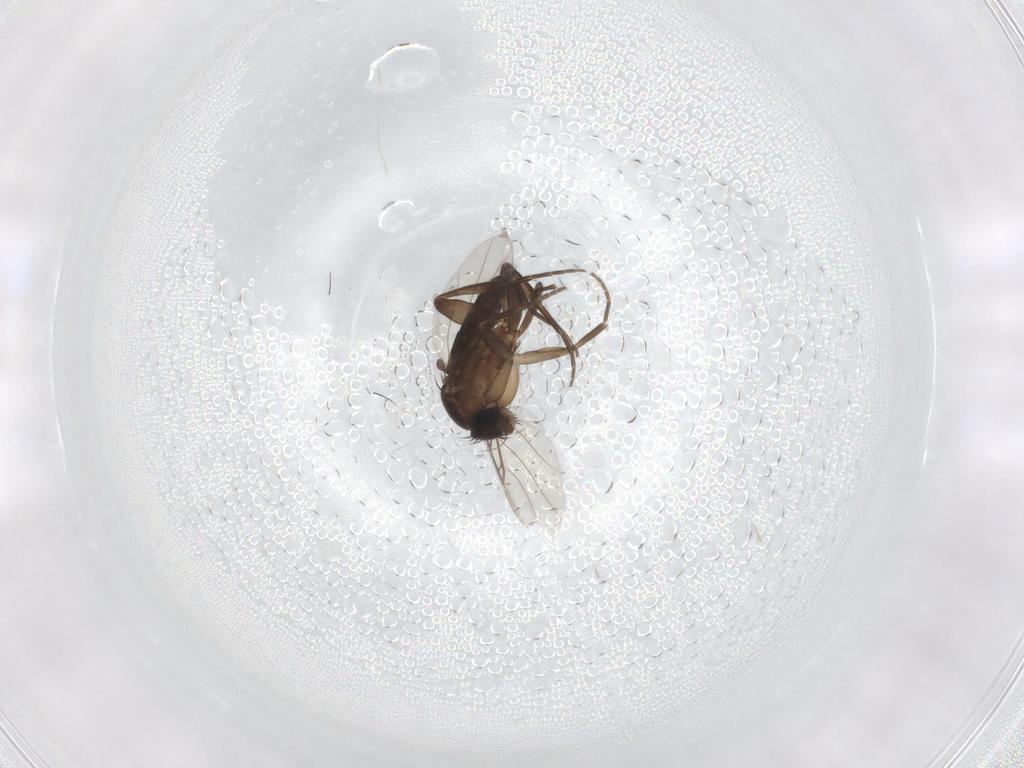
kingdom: Animalia
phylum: Arthropoda
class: Insecta
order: Diptera
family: Phoridae
